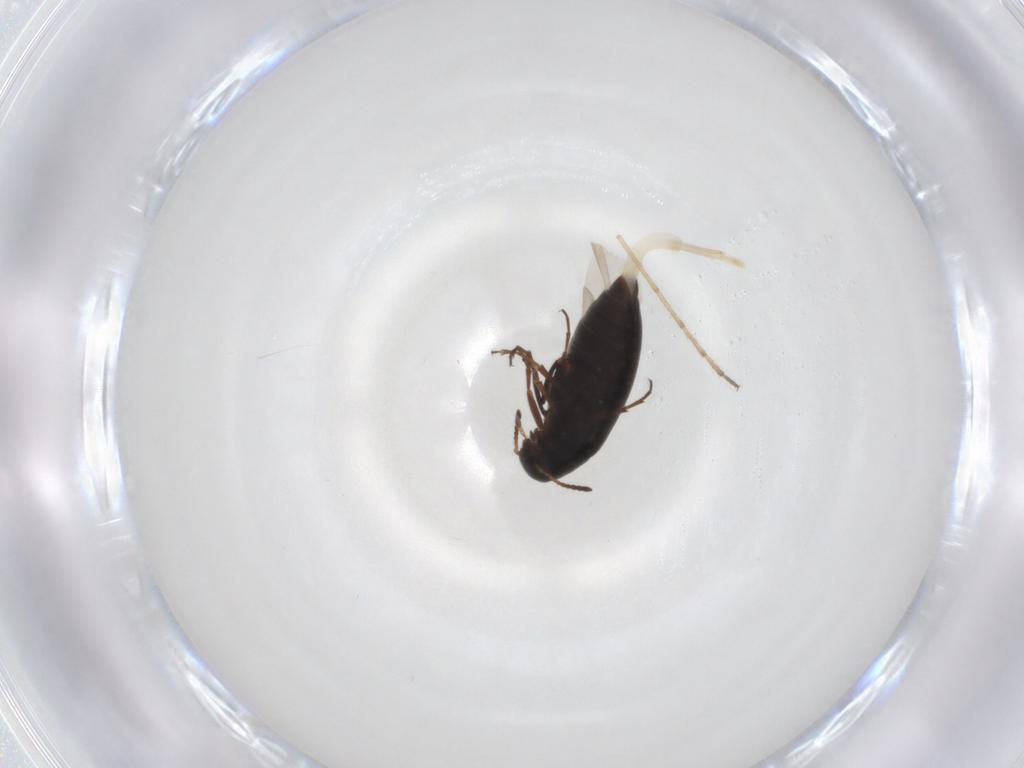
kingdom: Animalia
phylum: Arthropoda
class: Insecta
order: Coleoptera
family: Scraptiidae
